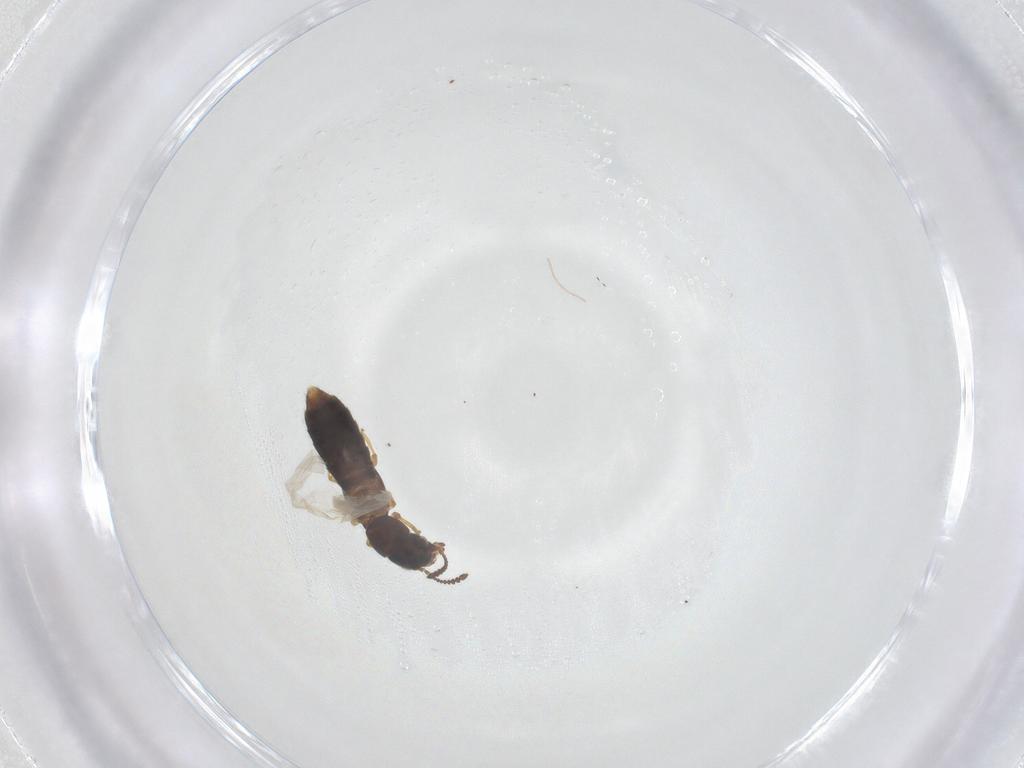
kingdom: Animalia
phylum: Arthropoda
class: Insecta
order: Coleoptera
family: Staphylinidae
